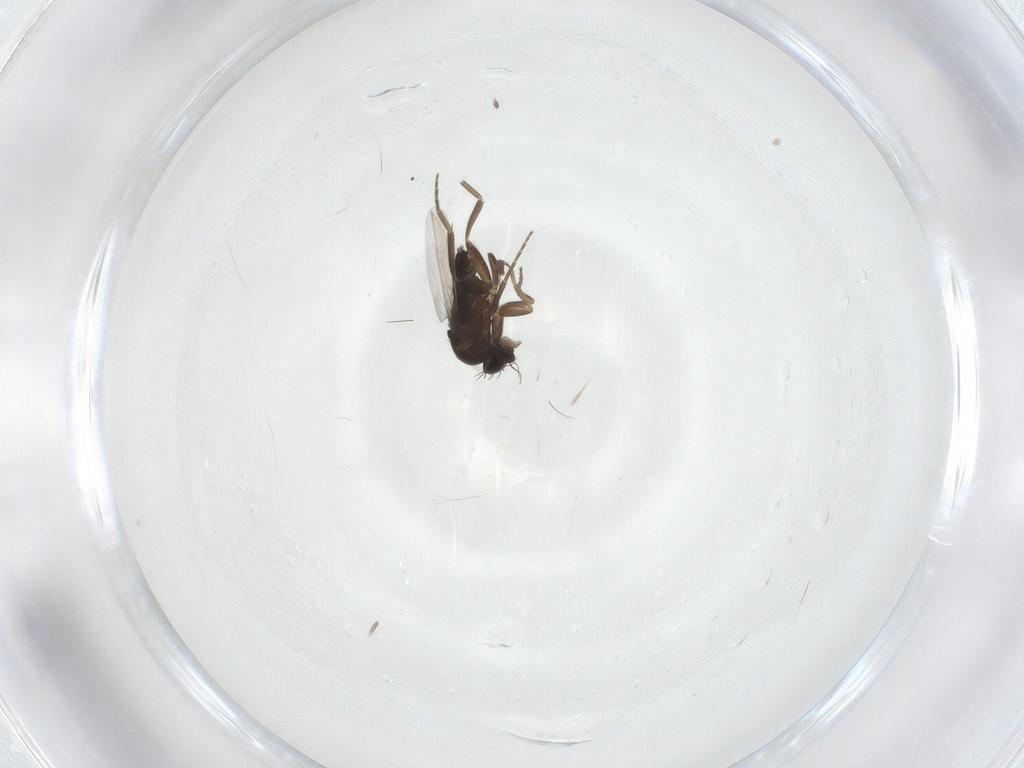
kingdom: Animalia
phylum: Arthropoda
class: Insecta
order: Diptera
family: Phoridae
